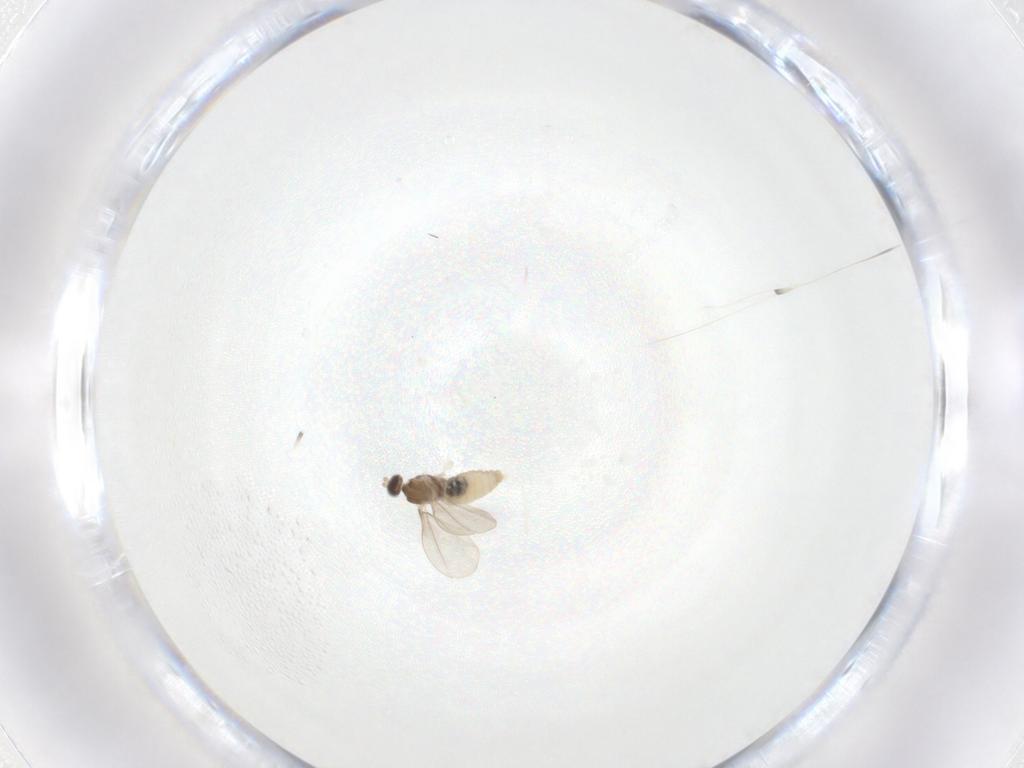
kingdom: Animalia
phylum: Arthropoda
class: Insecta
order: Diptera
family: Cecidomyiidae
